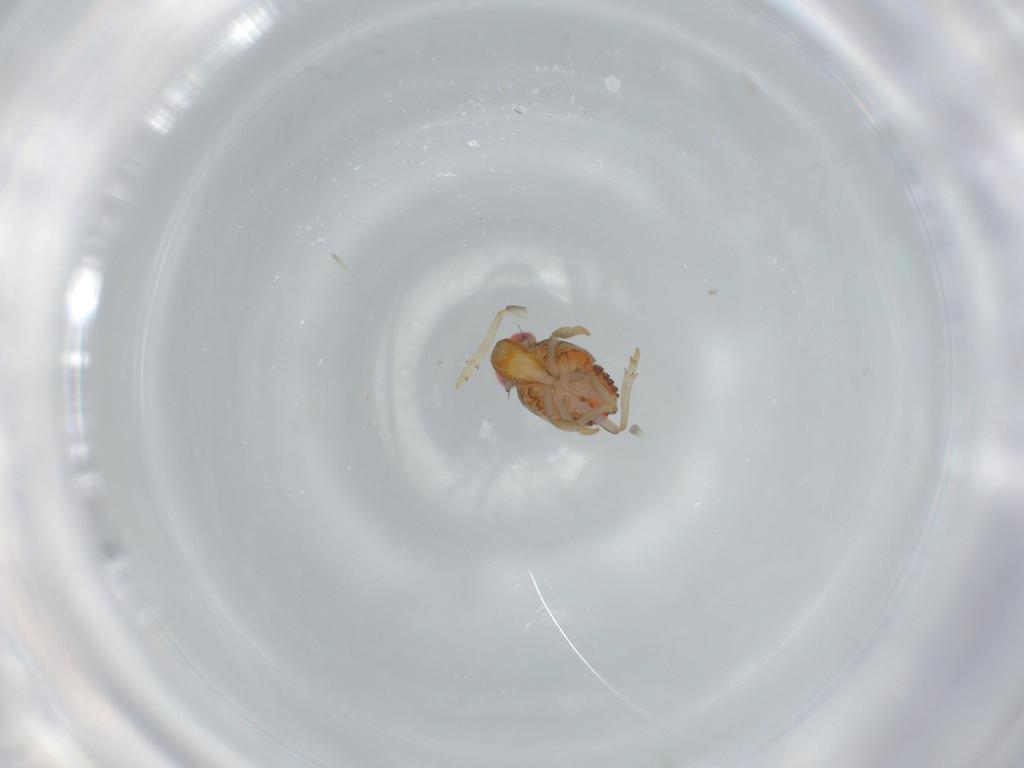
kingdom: Animalia
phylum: Arthropoda
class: Insecta
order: Hemiptera
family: Issidae
